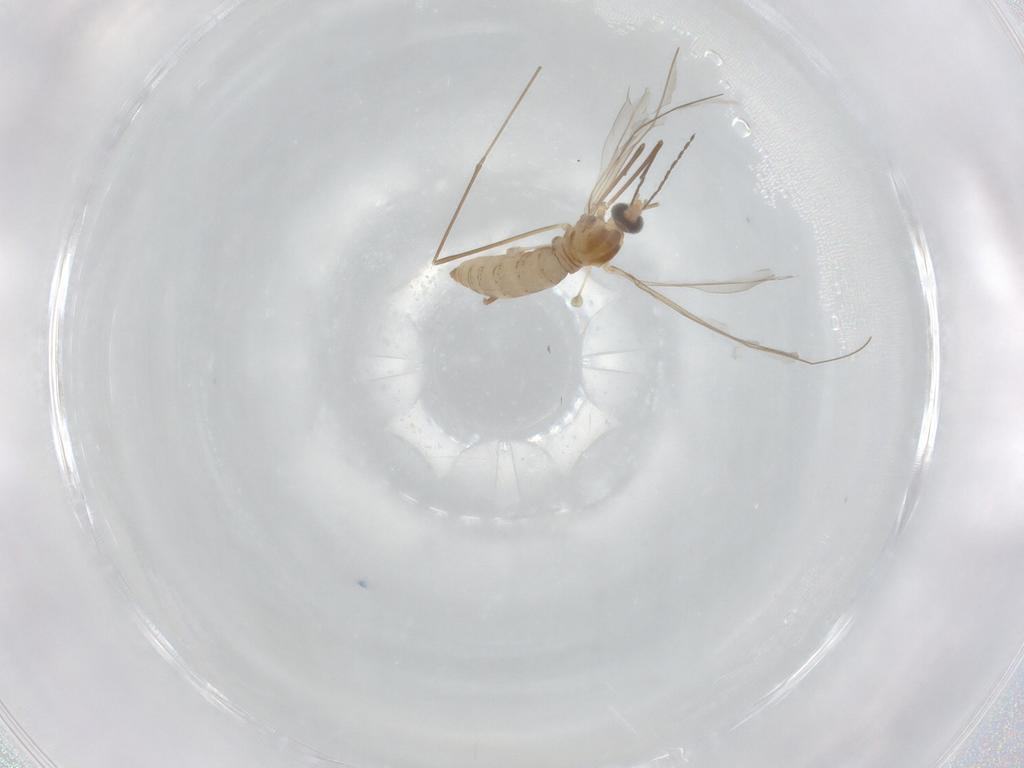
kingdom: Animalia
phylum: Arthropoda
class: Insecta
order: Diptera
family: Cecidomyiidae
